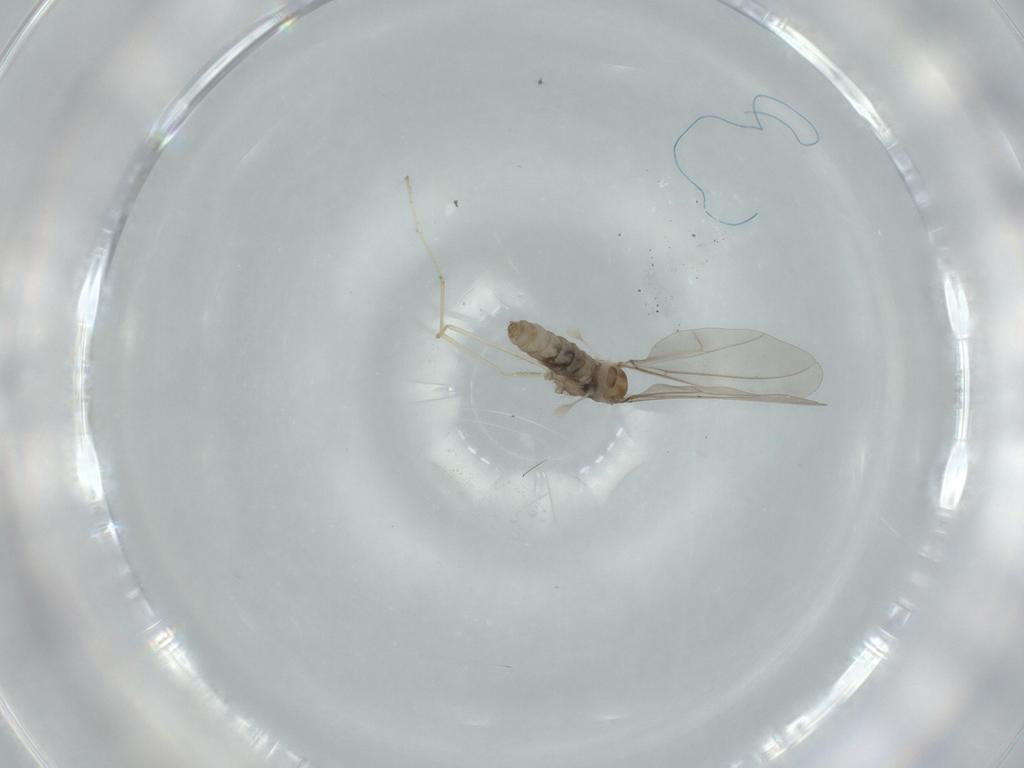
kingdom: Animalia
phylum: Arthropoda
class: Insecta
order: Diptera
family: Cecidomyiidae
